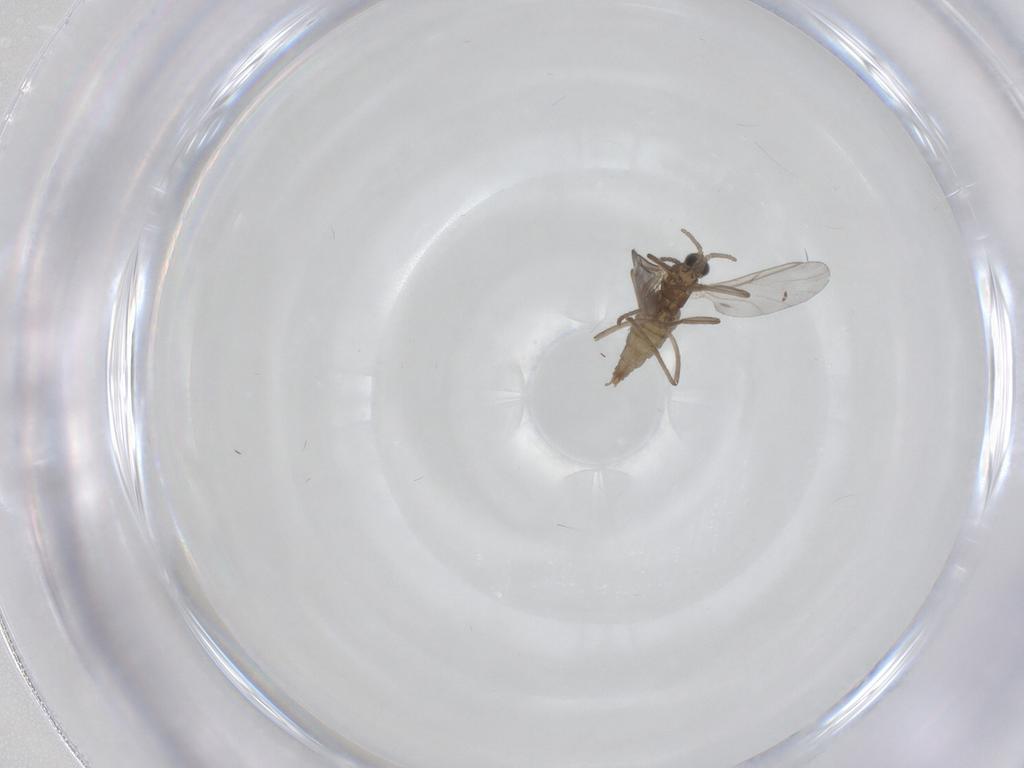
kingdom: Animalia
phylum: Arthropoda
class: Insecta
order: Diptera
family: Cecidomyiidae
